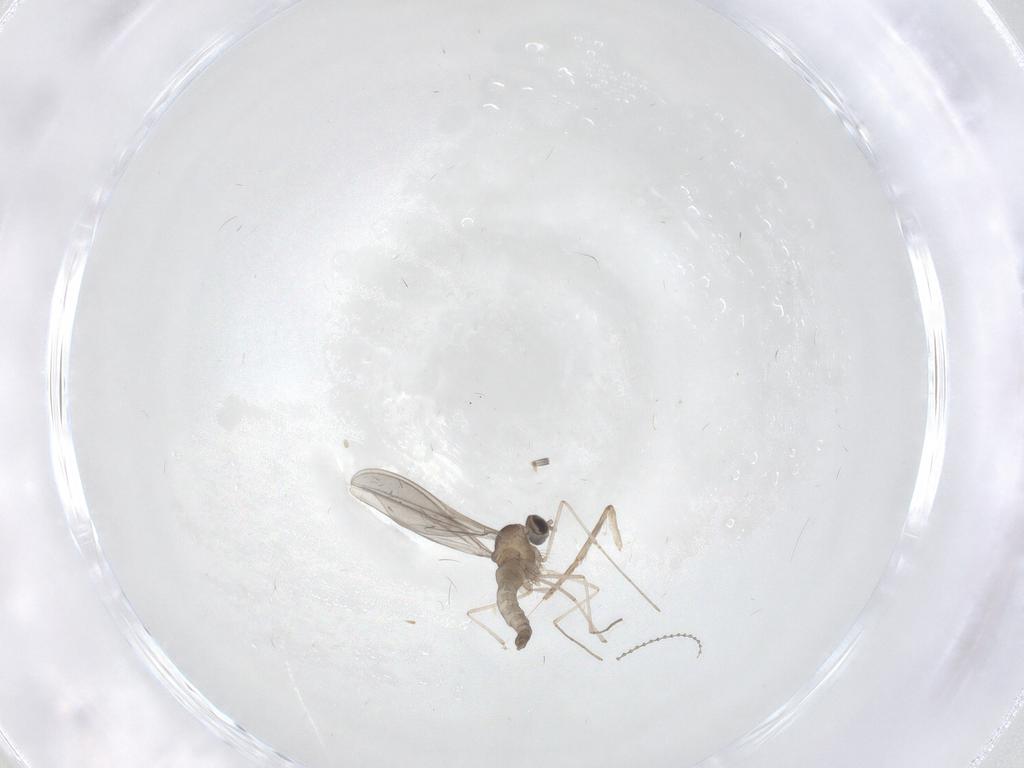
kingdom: Animalia
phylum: Arthropoda
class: Insecta
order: Diptera
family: Cecidomyiidae
